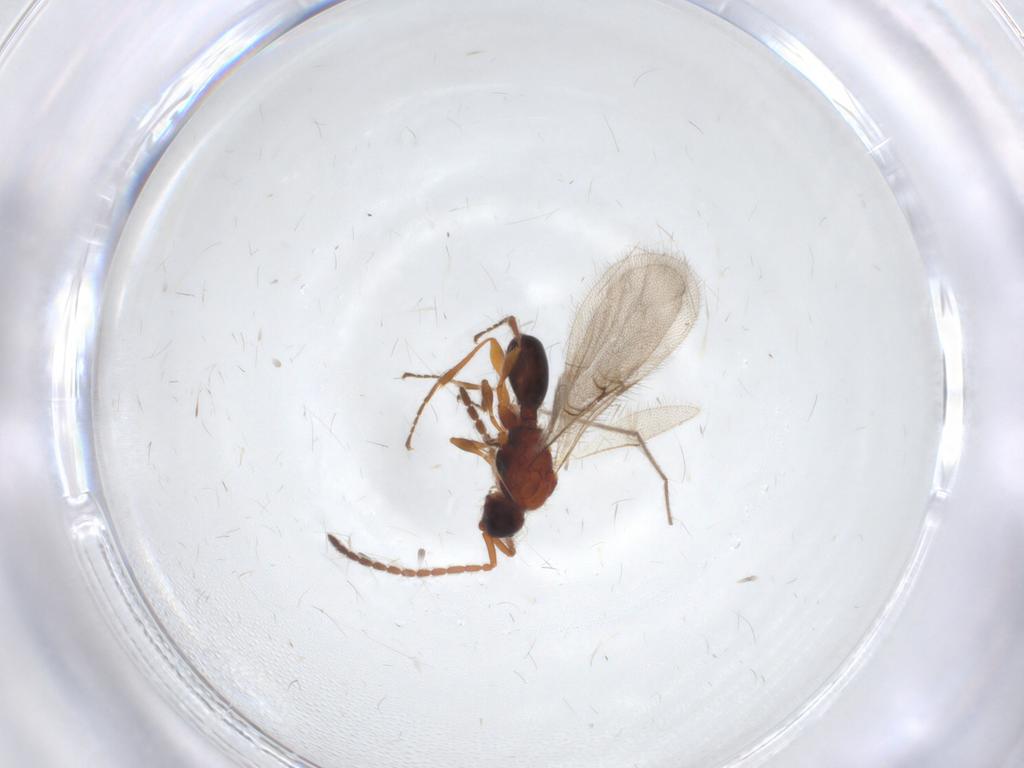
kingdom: Animalia
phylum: Arthropoda
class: Insecta
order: Hymenoptera
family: Diapriidae
